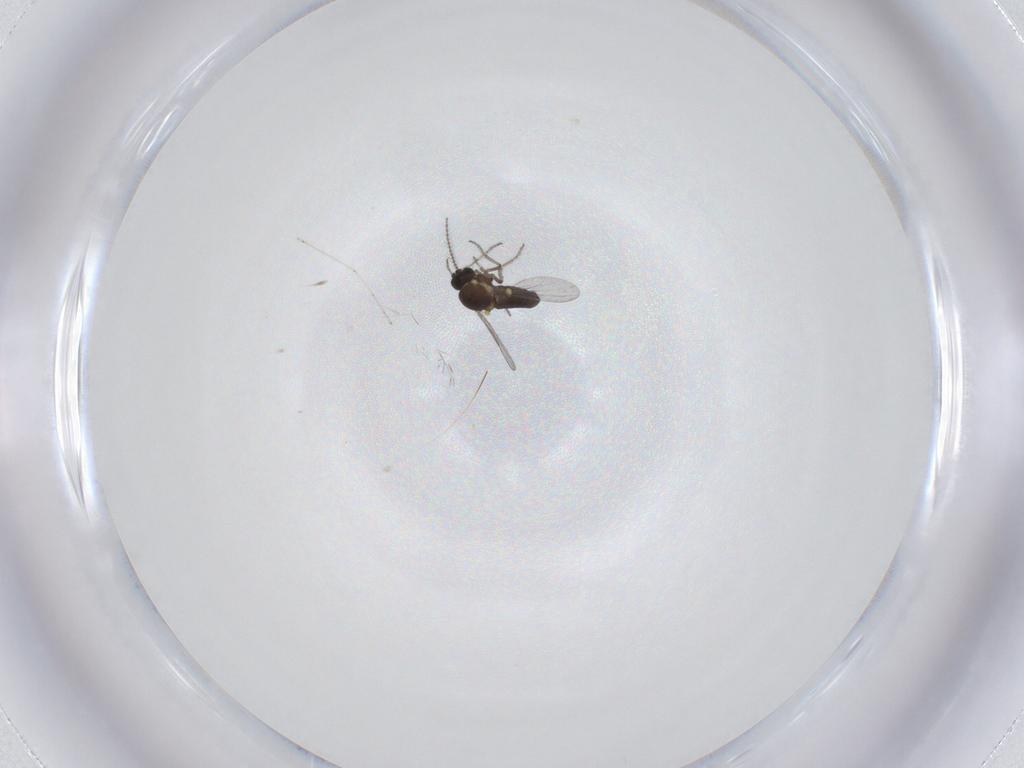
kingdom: Animalia
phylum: Arthropoda
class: Insecta
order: Diptera
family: Ceratopogonidae
